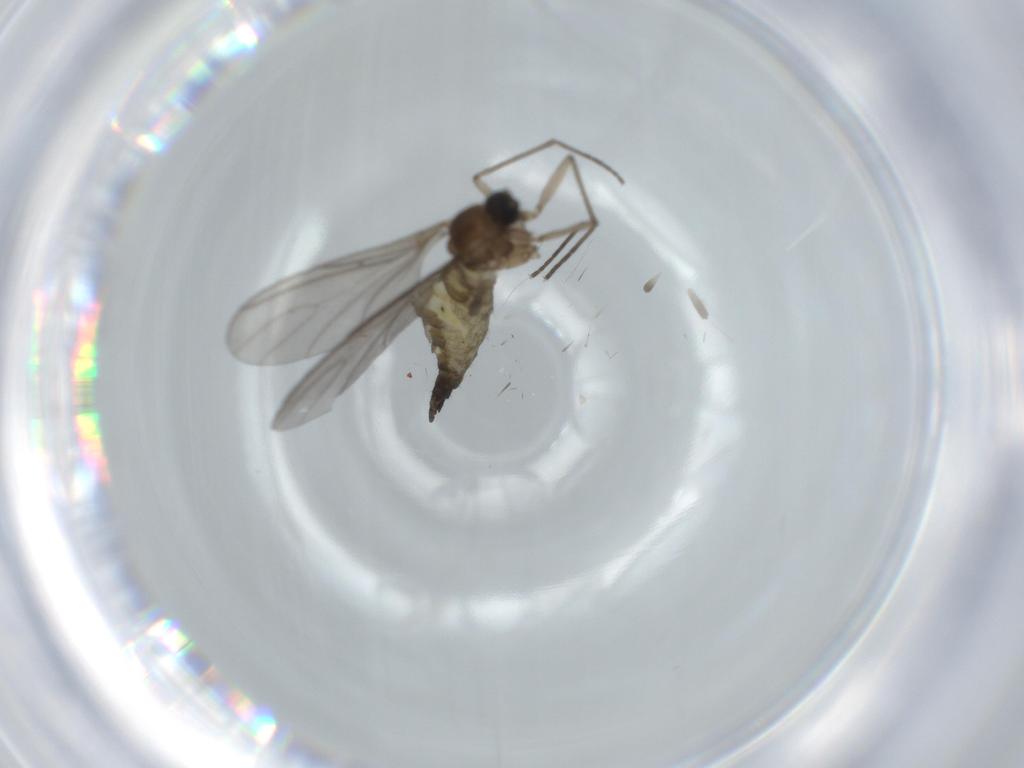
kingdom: Animalia
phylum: Arthropoda
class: Insecta
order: Diptera
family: Sciaridae
